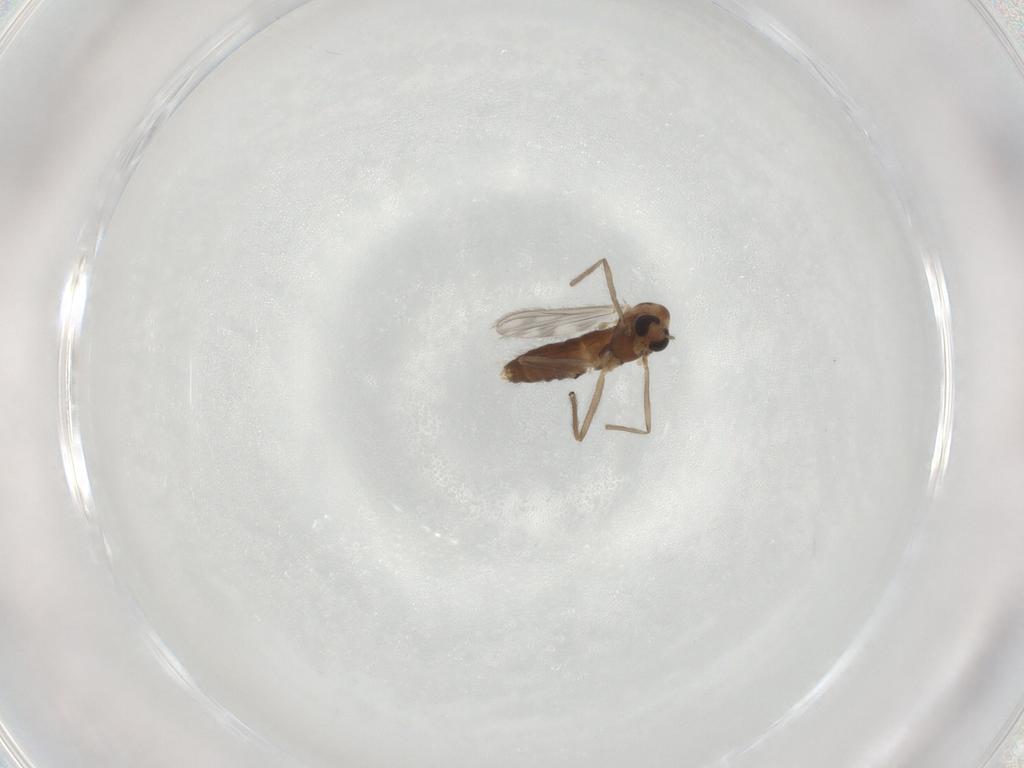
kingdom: Animalia
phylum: Arthropoda
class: Insecta
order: Diptera
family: Chironomidae
